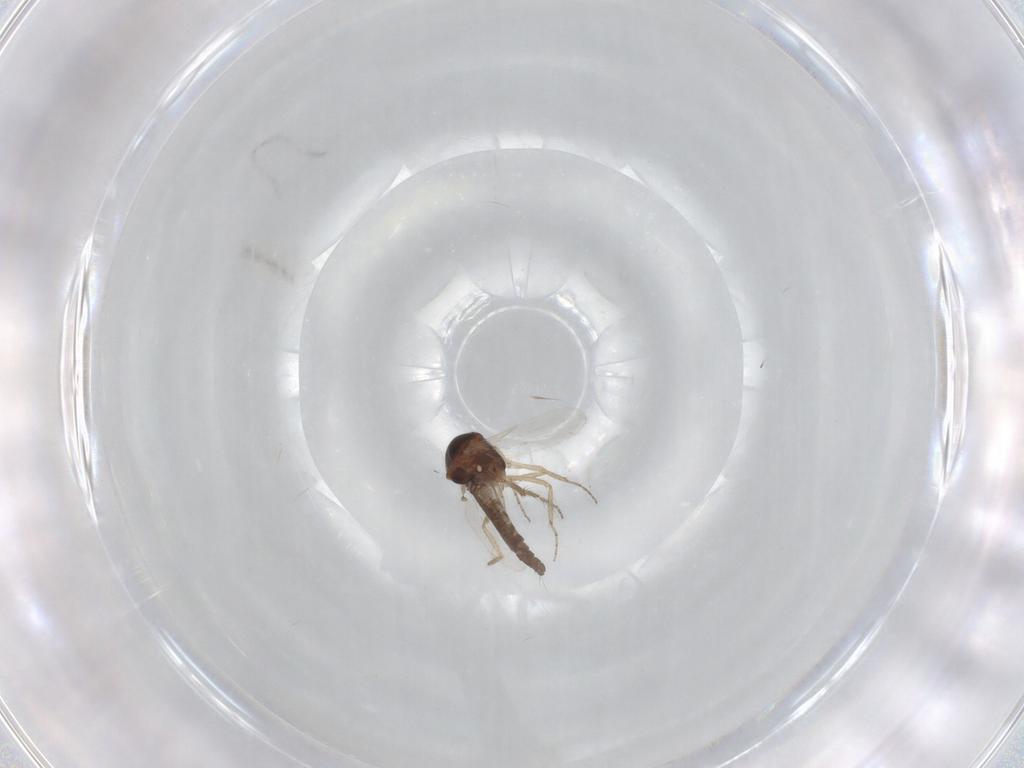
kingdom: Animalia
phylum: Arthropoda
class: Insecta
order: Diptera
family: Ceratopogonidae
